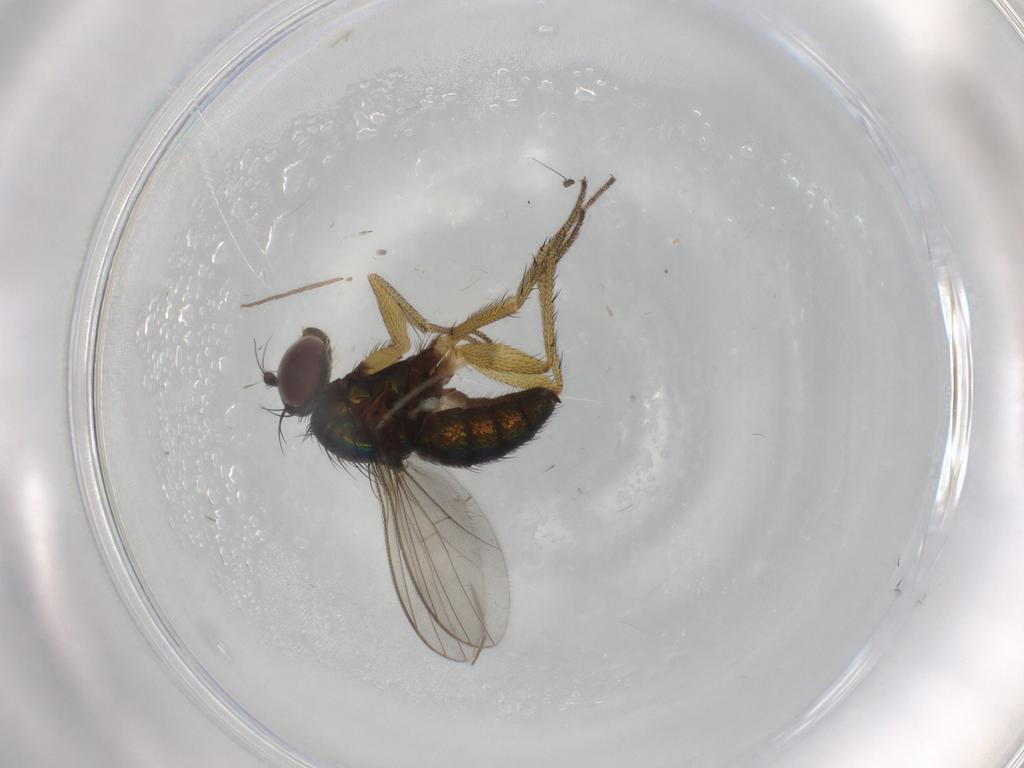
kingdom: Animalia
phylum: Arthropoda
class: Insecta
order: Diptera
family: Chironomidae
